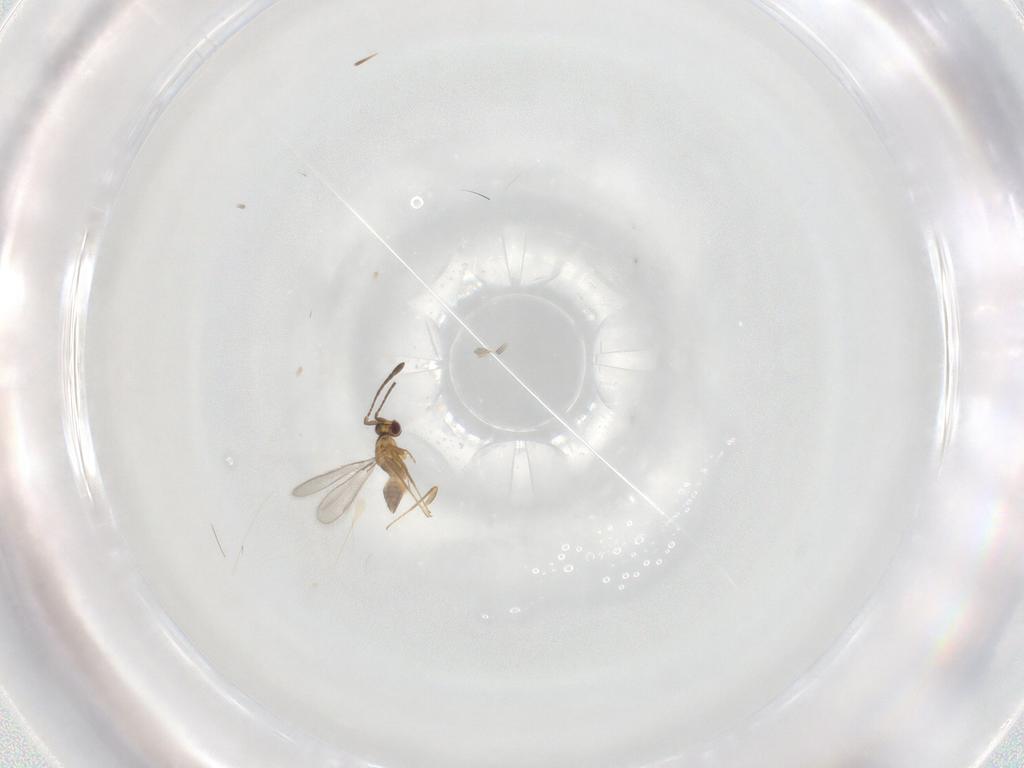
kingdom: Animalia
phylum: Arthropoda
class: Insecta
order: Hymenoptera
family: Mymaridae
